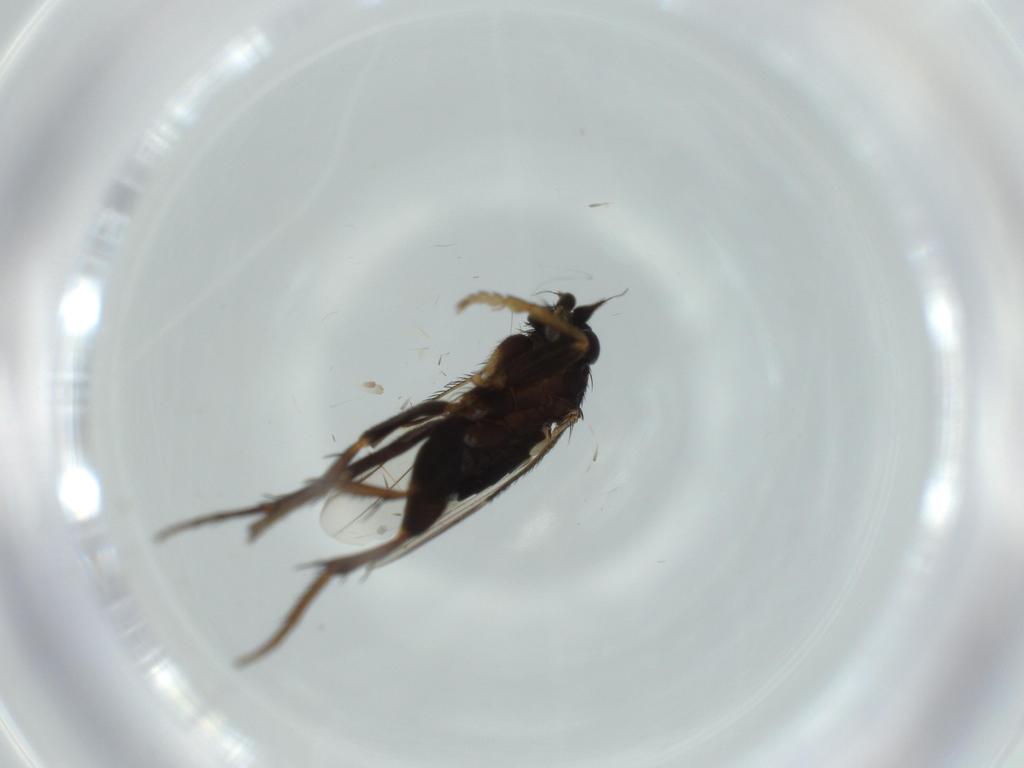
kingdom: Animalia
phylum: Arthropoda
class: Insecta
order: Diptera
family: Phoridae
